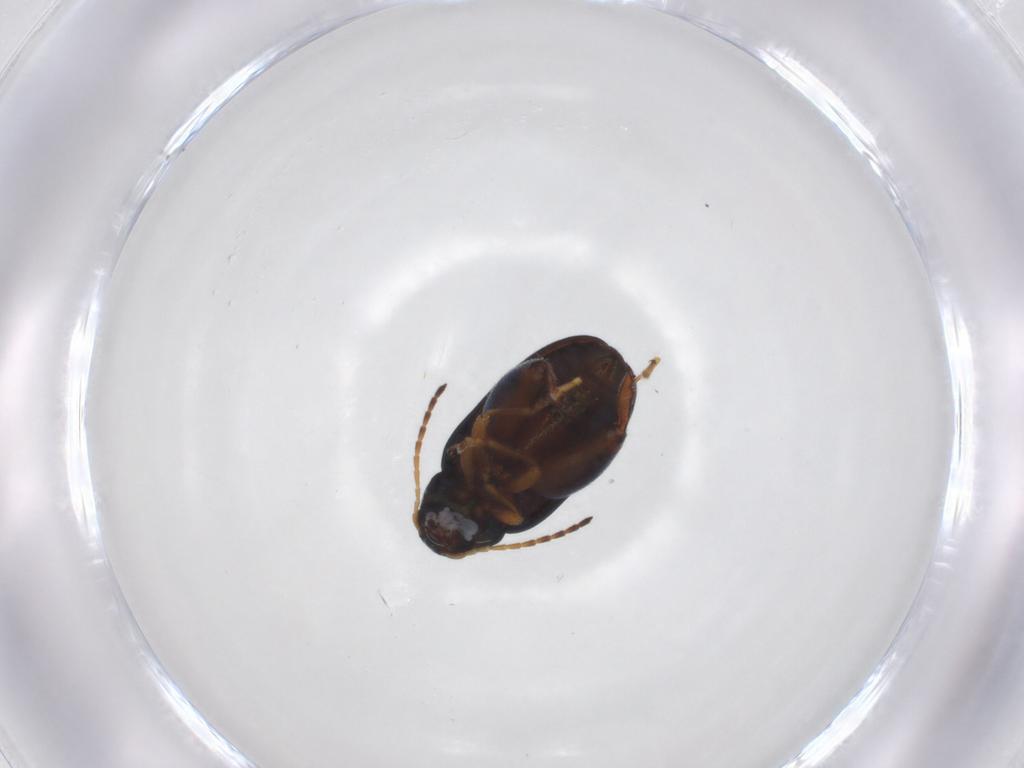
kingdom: Animalia
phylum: Arthropoda
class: Insecta
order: Coleoptera
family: Chrysomelidae
